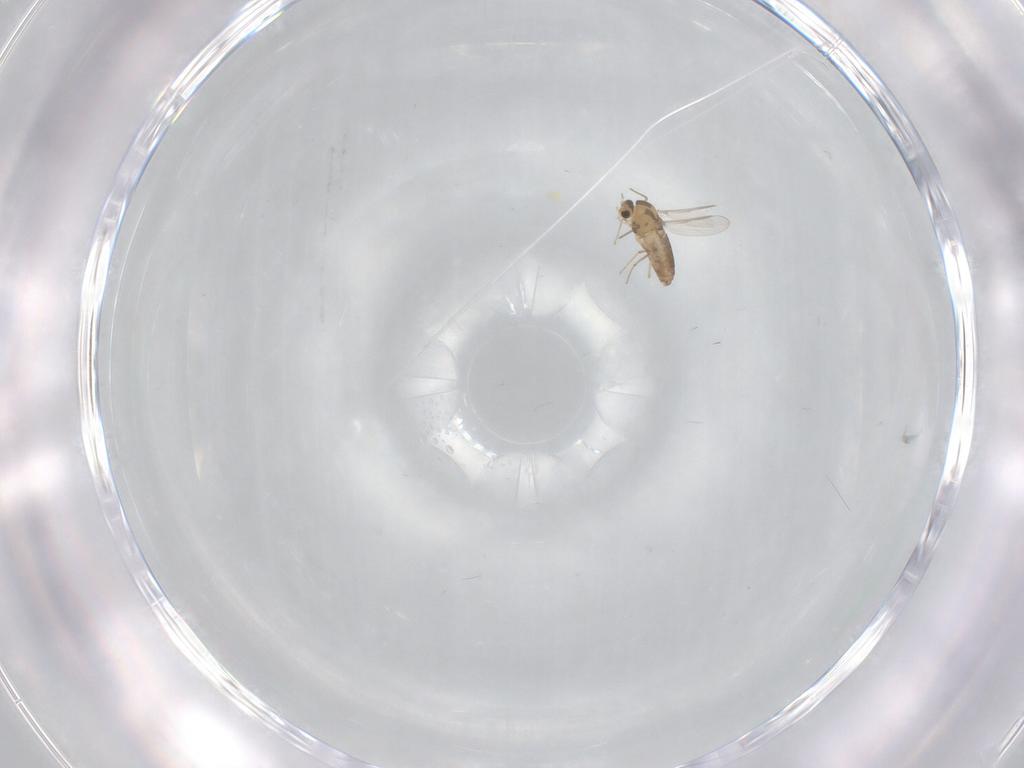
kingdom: Animalia
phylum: Arthropoda
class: Insecta
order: Diptera
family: Chironomidae
